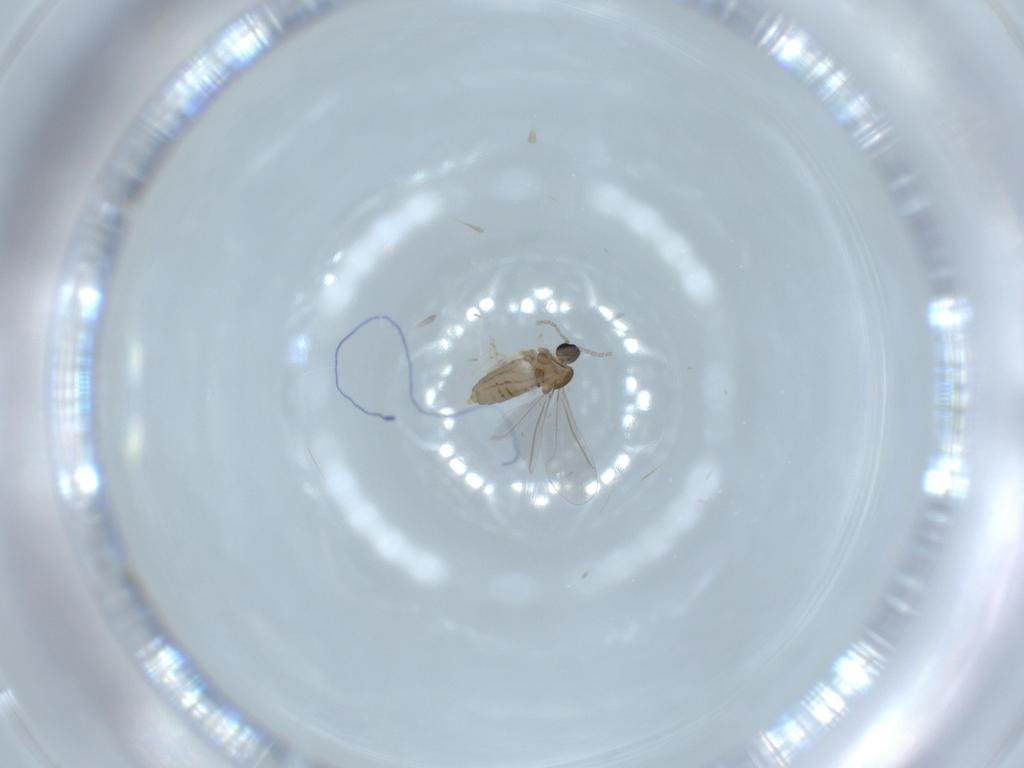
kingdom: Animalia
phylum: Arthropoda
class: Insecta
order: Diptera
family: Cecidomyiidae
